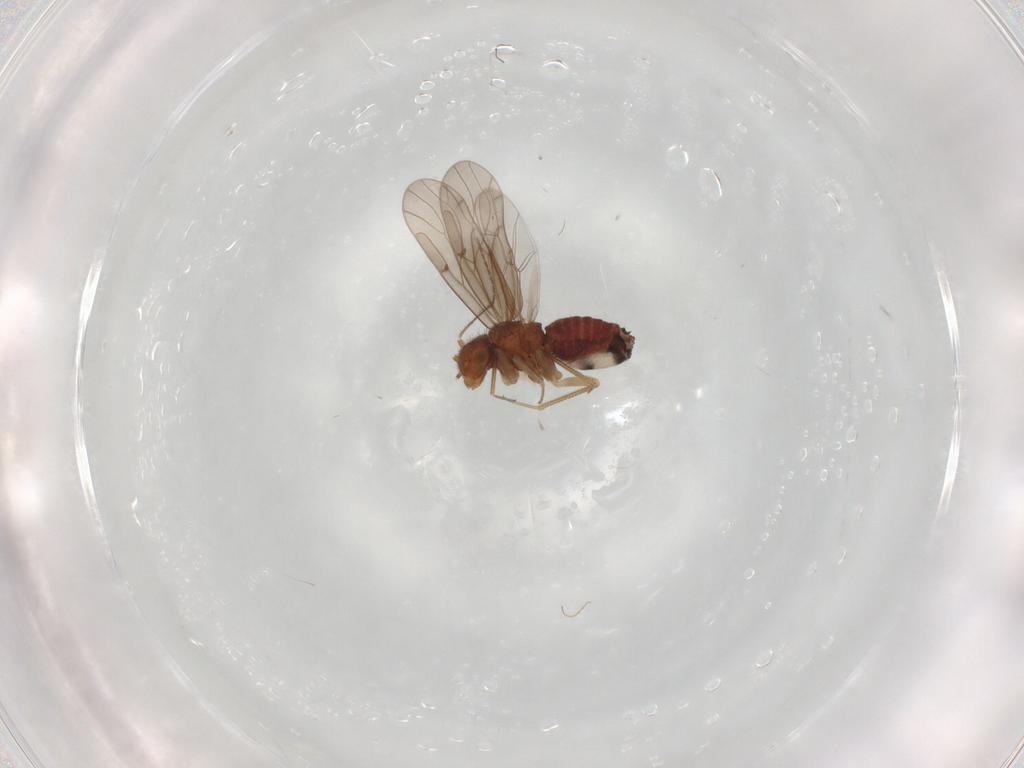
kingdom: Animalia
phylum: Arthropoda
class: Insecta
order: Psocodea
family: Ectopsocidae
